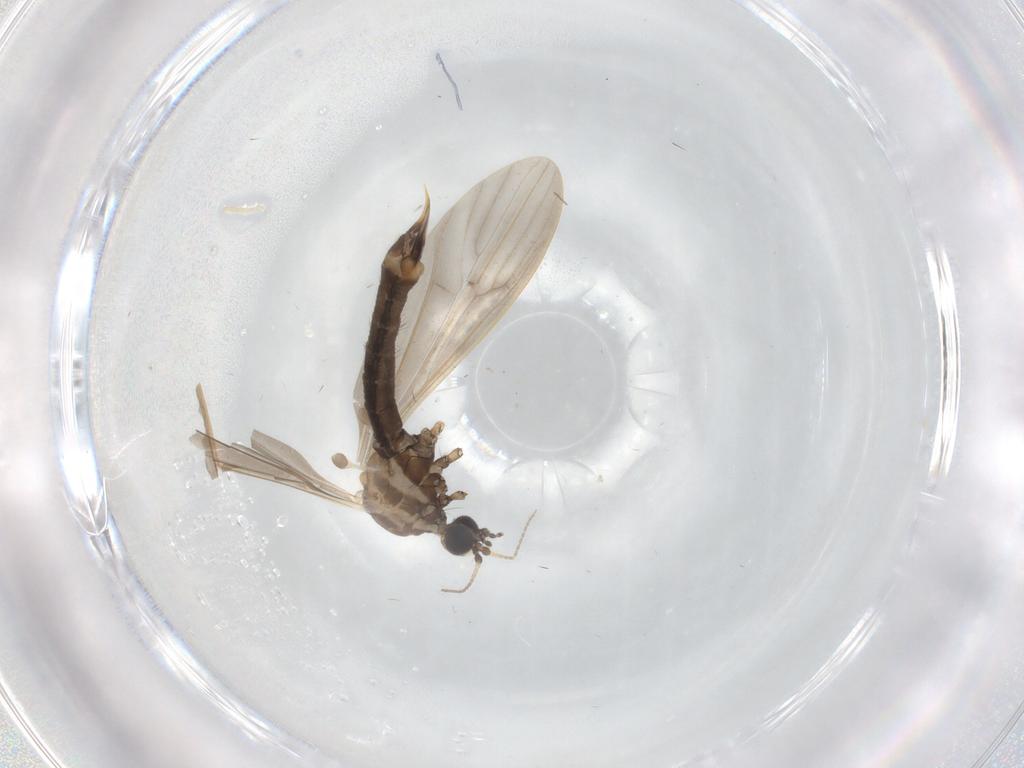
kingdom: Animalia
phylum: Arthropoda
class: Insecta
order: Diptera
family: Limoniidae
